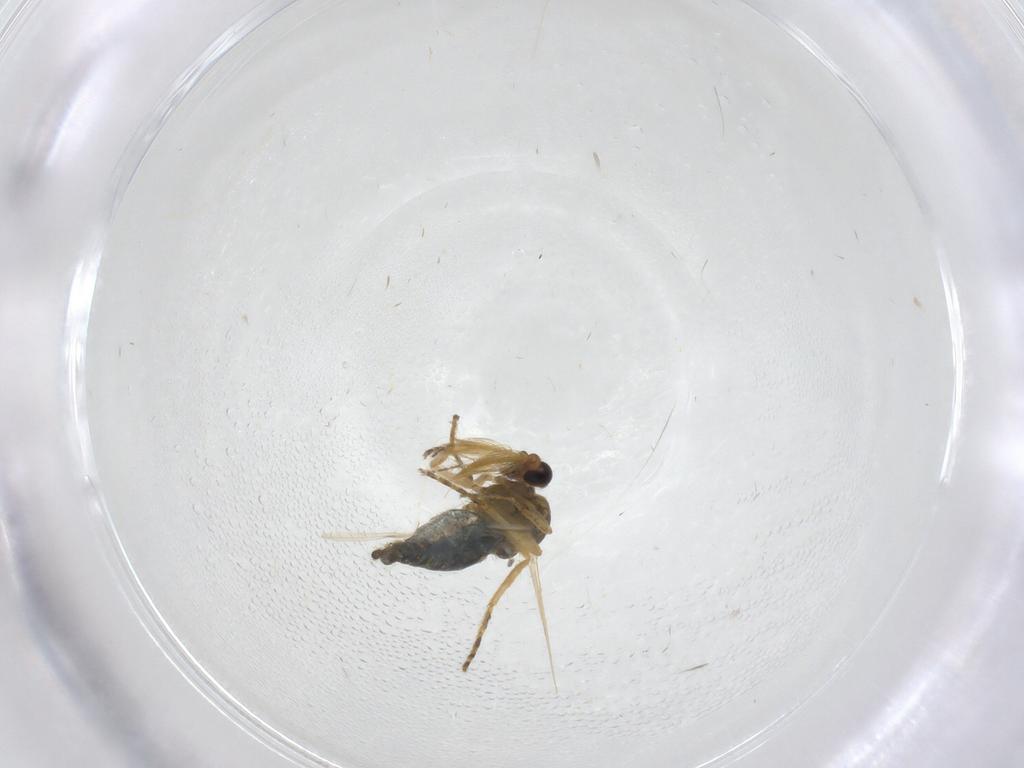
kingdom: Animalia
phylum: Arthropoda
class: Insecta
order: Diptera
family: Ceratopogonidae
